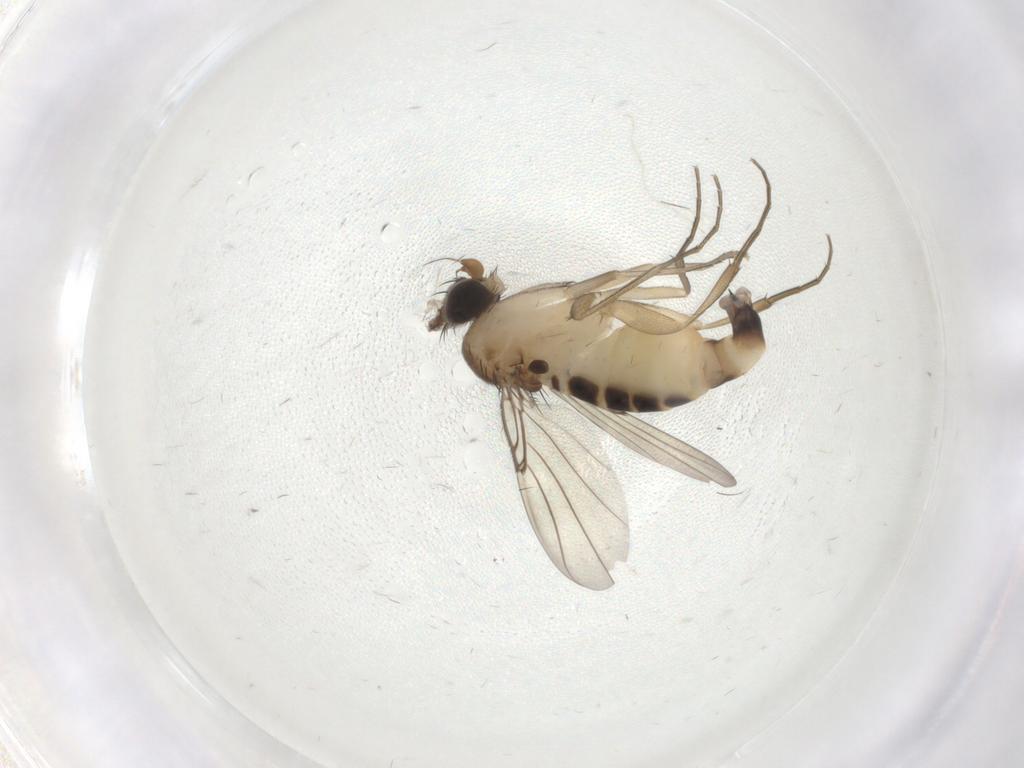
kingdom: Animalia
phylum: Arthropoda
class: Insecta
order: Diptera
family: Phoridae
